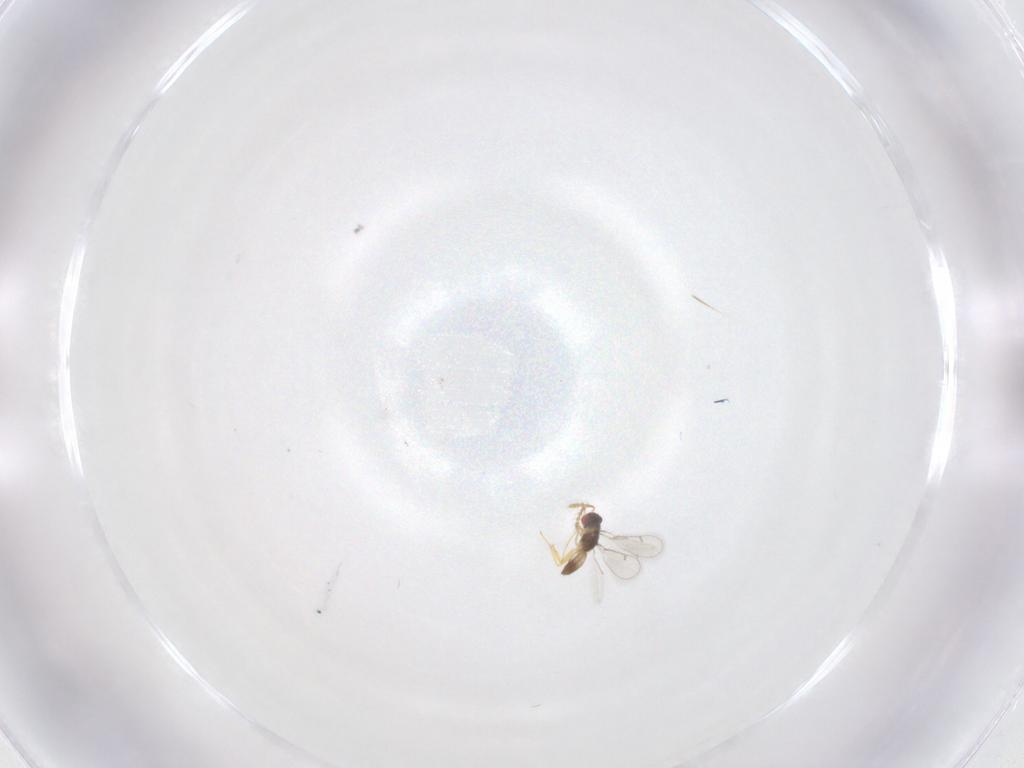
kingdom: Animalia
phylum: Arthropoda
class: Insecta
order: Hymenoptera
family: Eulophidae
